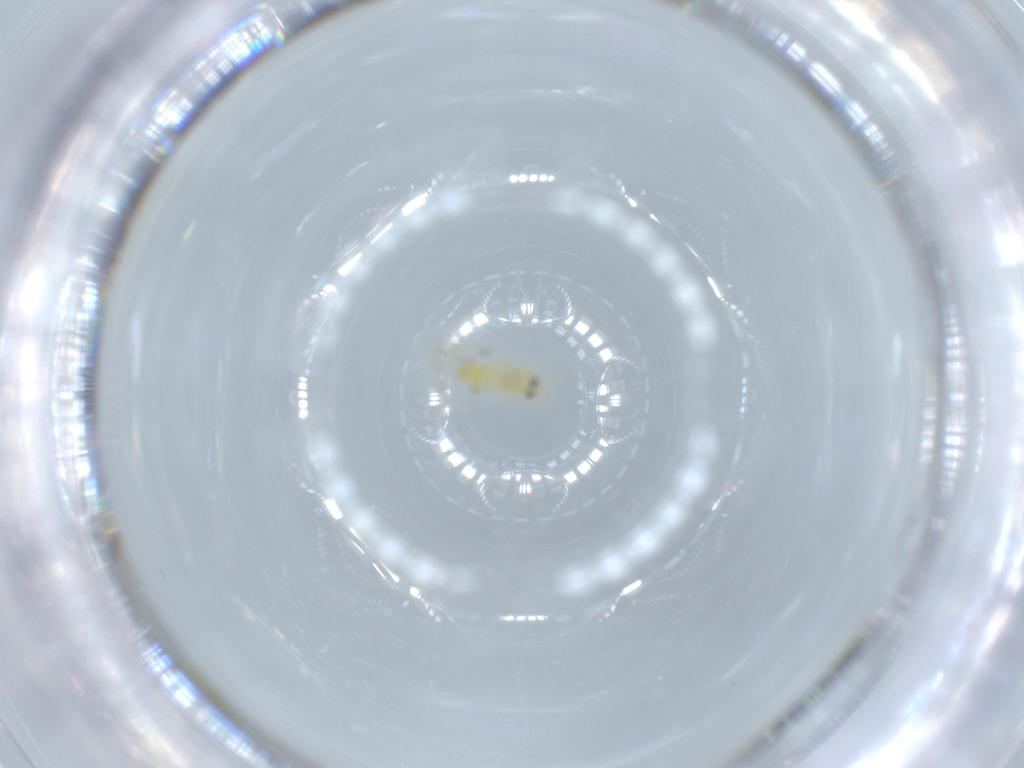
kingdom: Animalia
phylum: Arthropoda
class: Insecta
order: Hemiptera
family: Aleyrodidae
